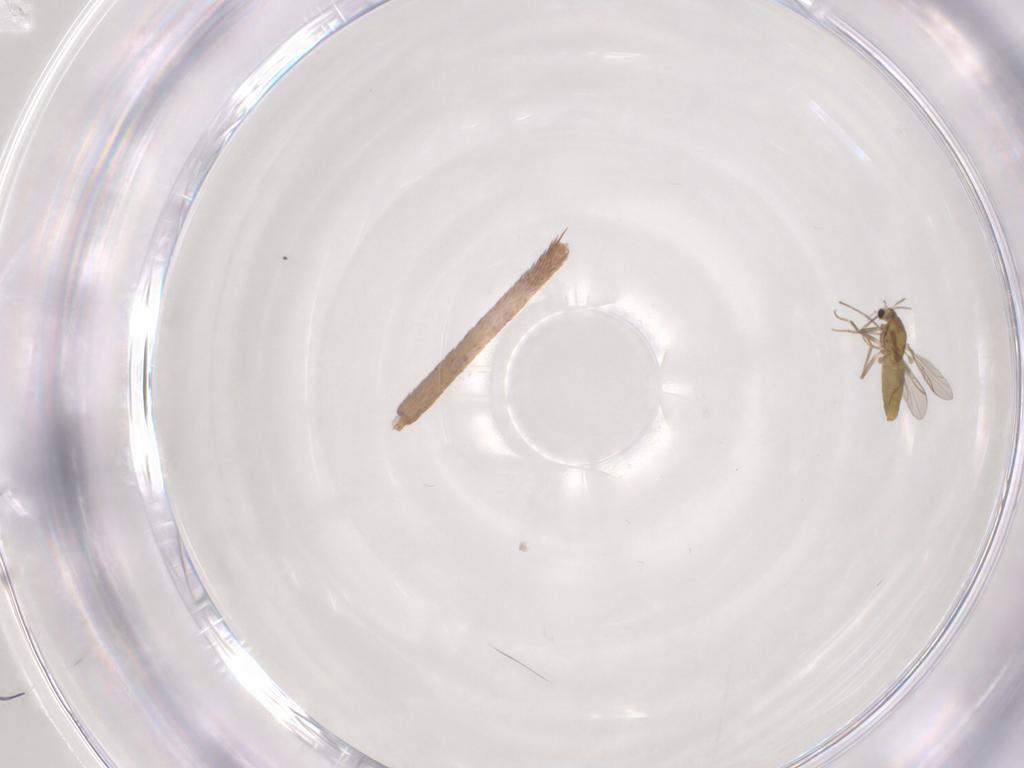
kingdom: Animalia
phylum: Arthropoda
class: Insecta
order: Diptera
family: Chironomidae
